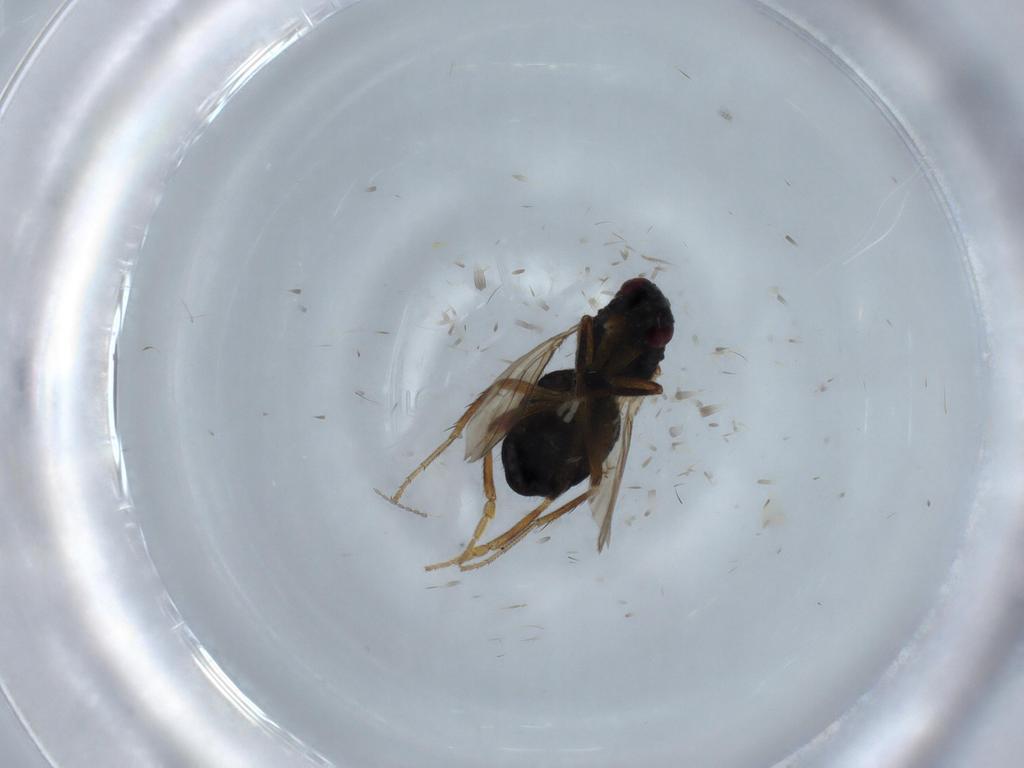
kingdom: Animalia
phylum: Arthropoda
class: Insecta
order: Diptera
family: Sphaeroceridae
